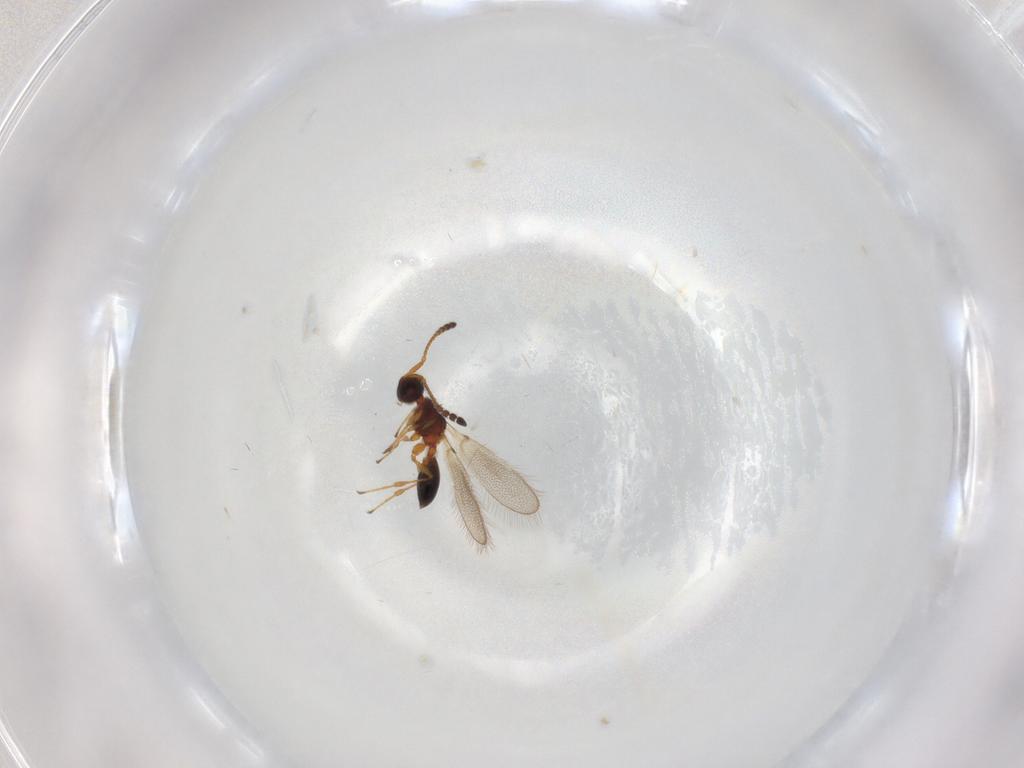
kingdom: Animalia
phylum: Arthropoda
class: Insecta
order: Hymenoptera
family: Halictidae
